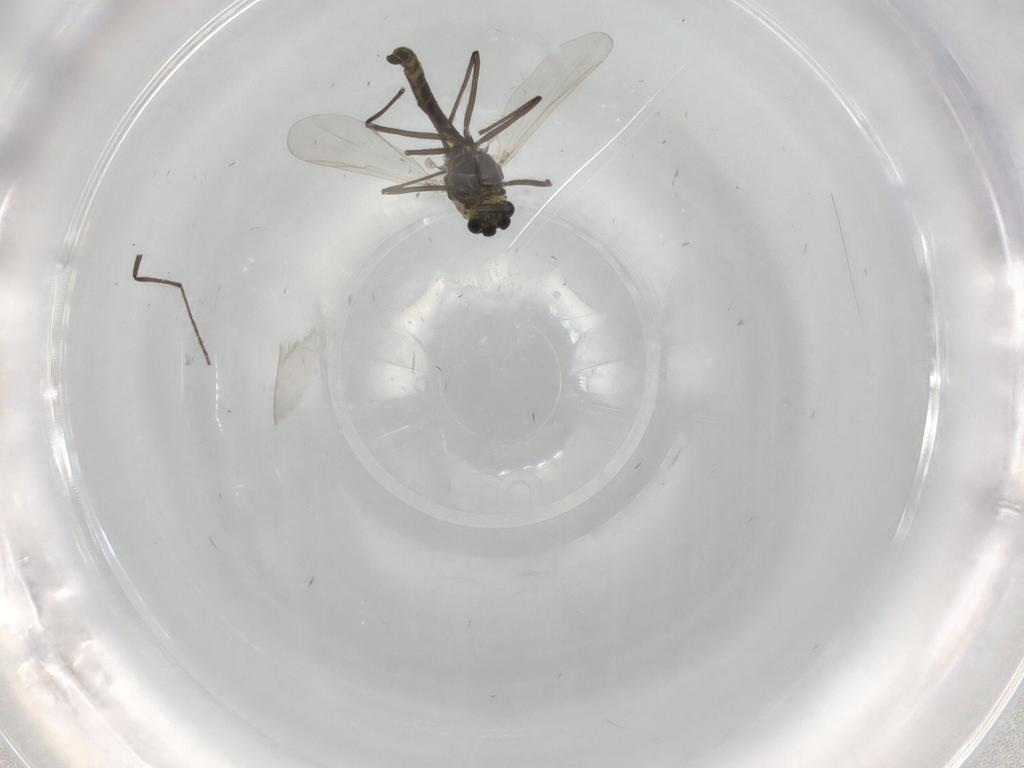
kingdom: Animalia
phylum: Arthropoda
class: Insecta
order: Diptera
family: Chironomidae
